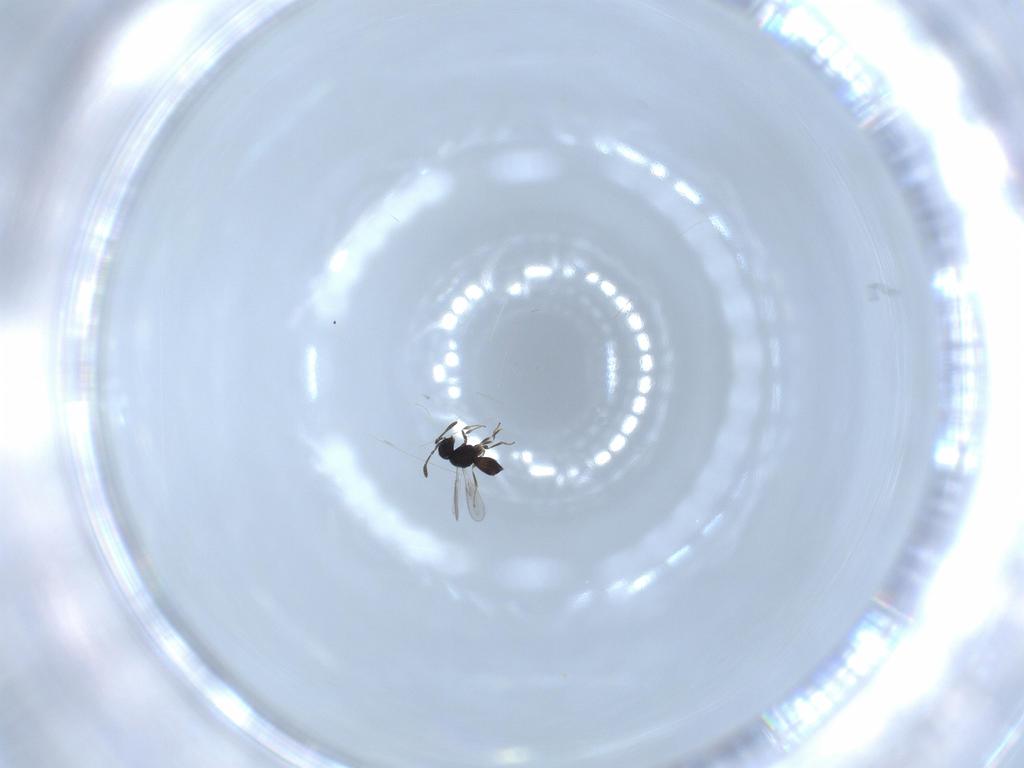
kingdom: Animalia
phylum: Arthropoda
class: Insecta
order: Hymenoptera
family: Scelionidae
